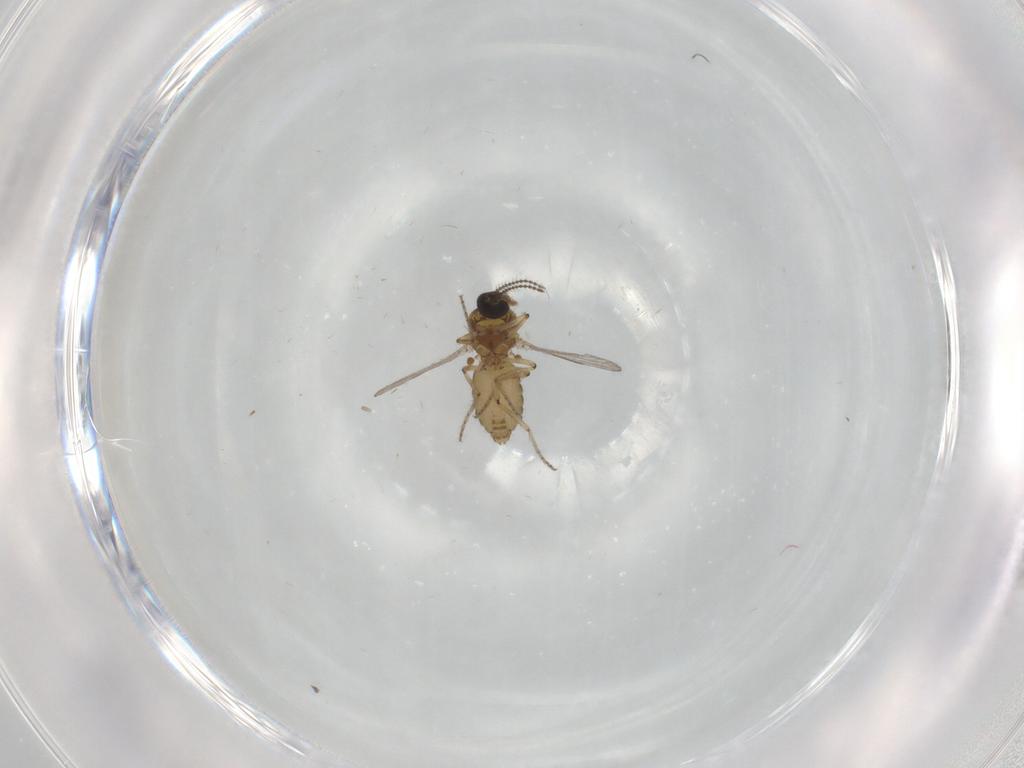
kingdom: Animalia
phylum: Arthropoda
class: Insecta
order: Diptera
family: Ceratopogonidae
